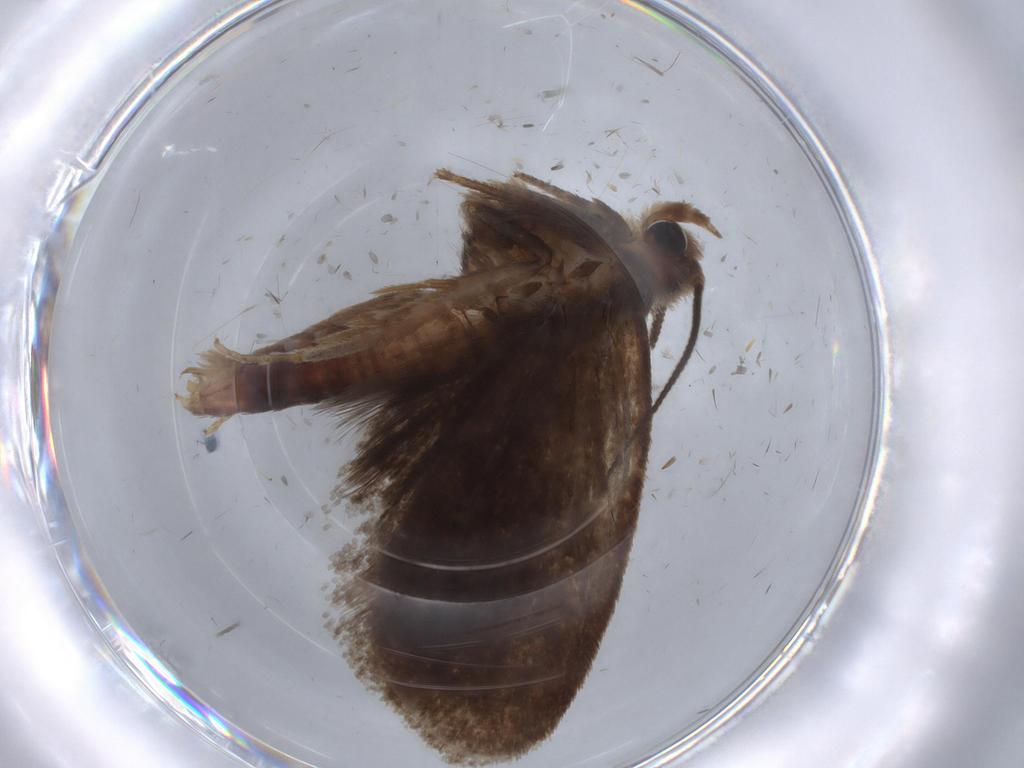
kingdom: Animalia
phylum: Arthropoda
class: Insecta
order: Lepidoptera
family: Tineidae
